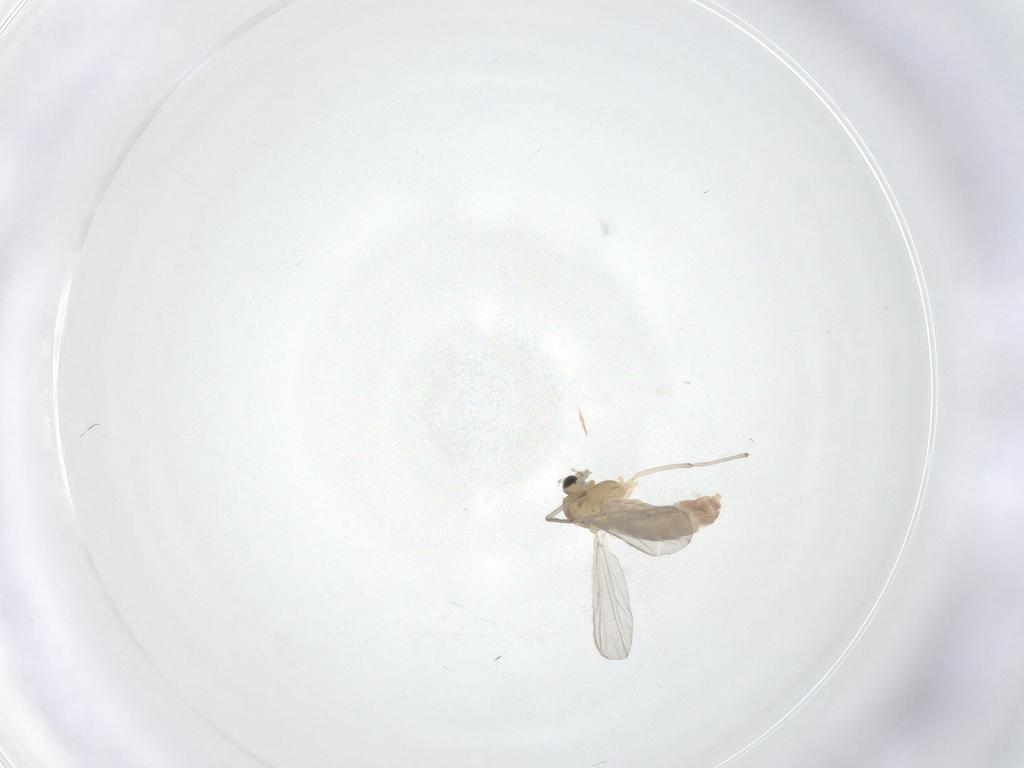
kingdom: Animalia
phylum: Arthropoda
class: Insecta
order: Diptera
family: Chironomidae
